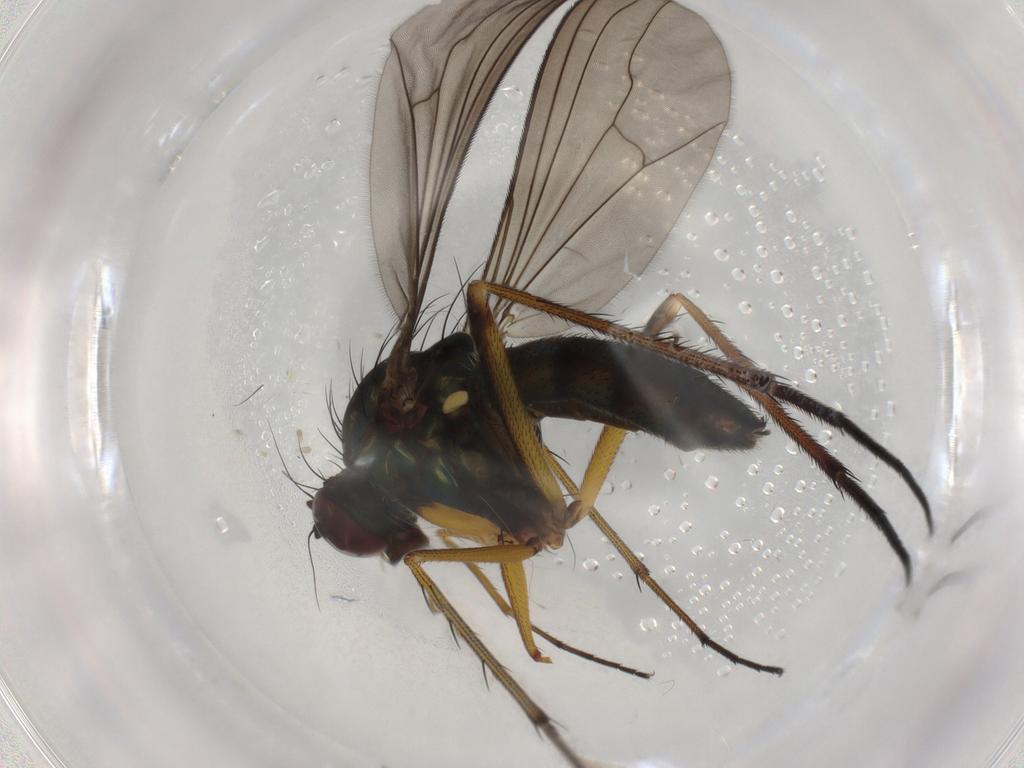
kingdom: Animalia
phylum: Arthropoda
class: Insecta
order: Diptera
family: Dolichopodidae
